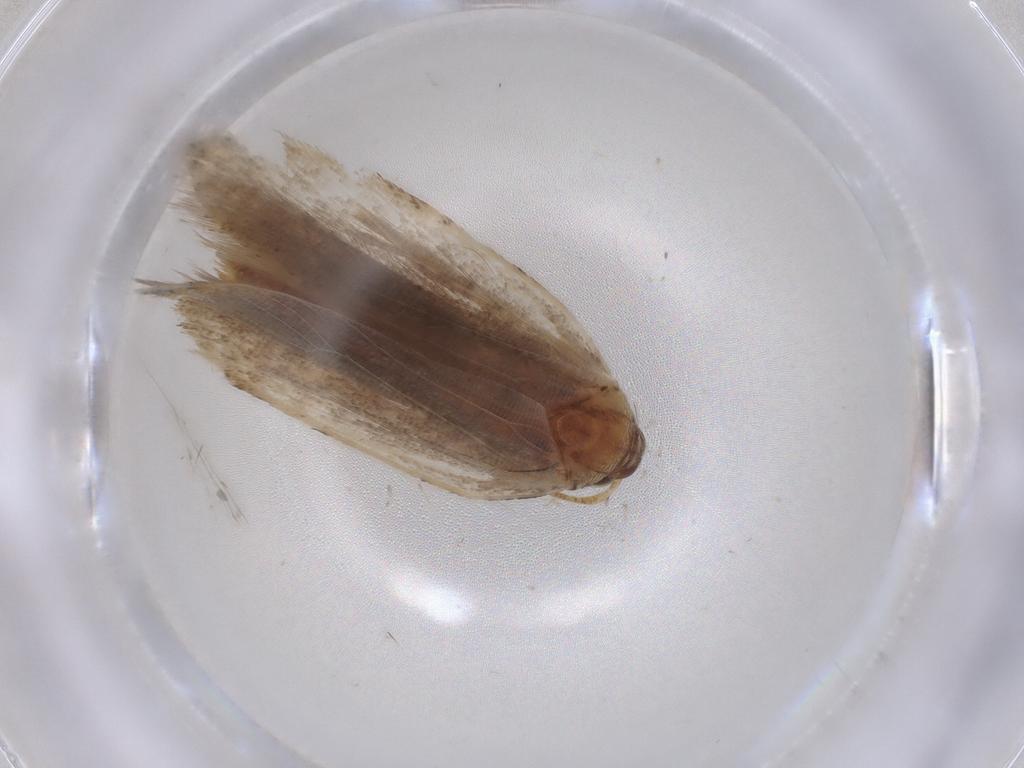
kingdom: Animalia
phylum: Arthropoda
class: Insecta
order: Lepidoptera
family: Gelechiidae
